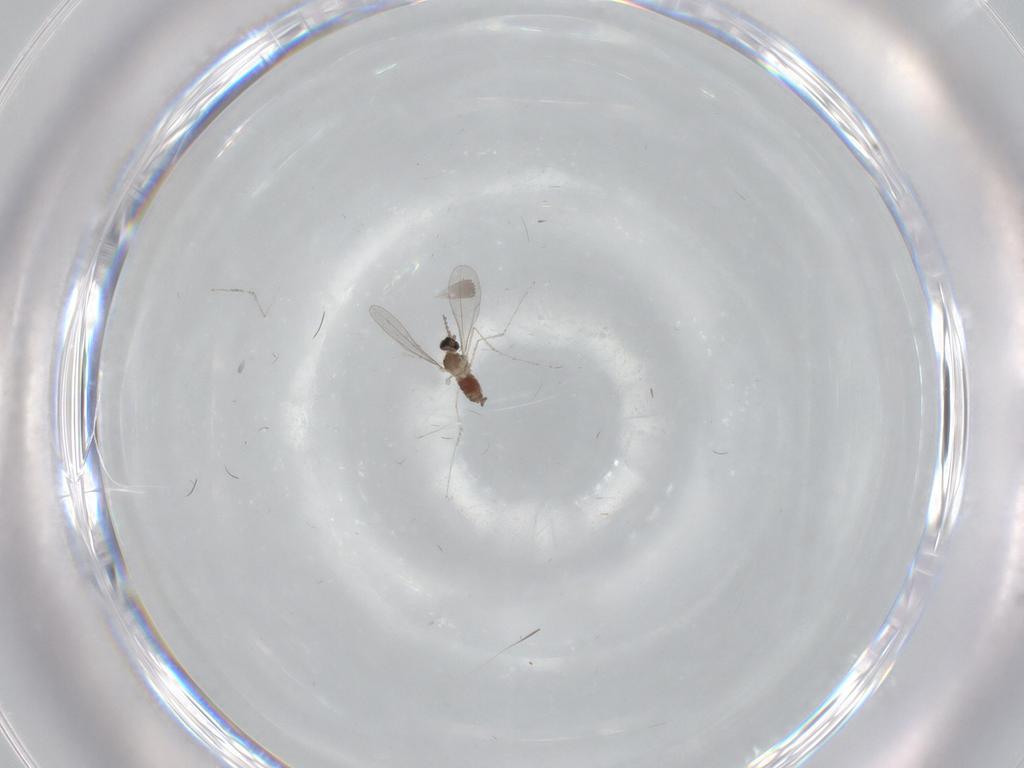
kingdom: Animalia
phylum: Arthropoda
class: Insecta
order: Diptera
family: Cecidomyiidae
